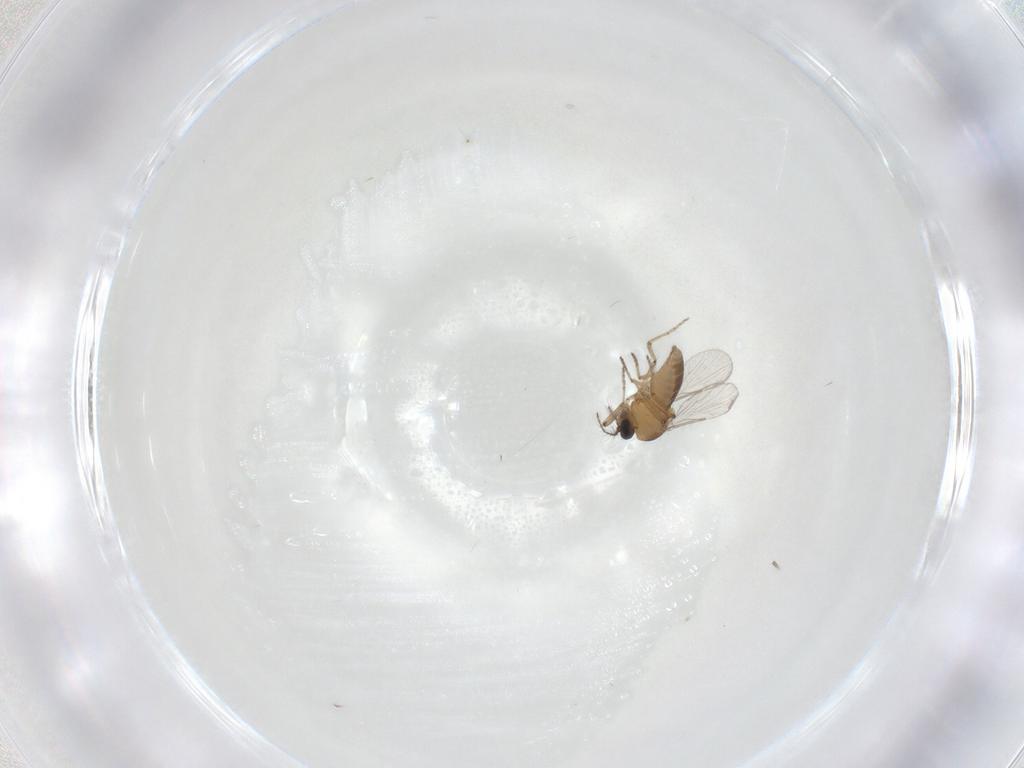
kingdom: Animalia
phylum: Arthropoda
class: Insecta
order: Diptera
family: Ceratopogonidae
